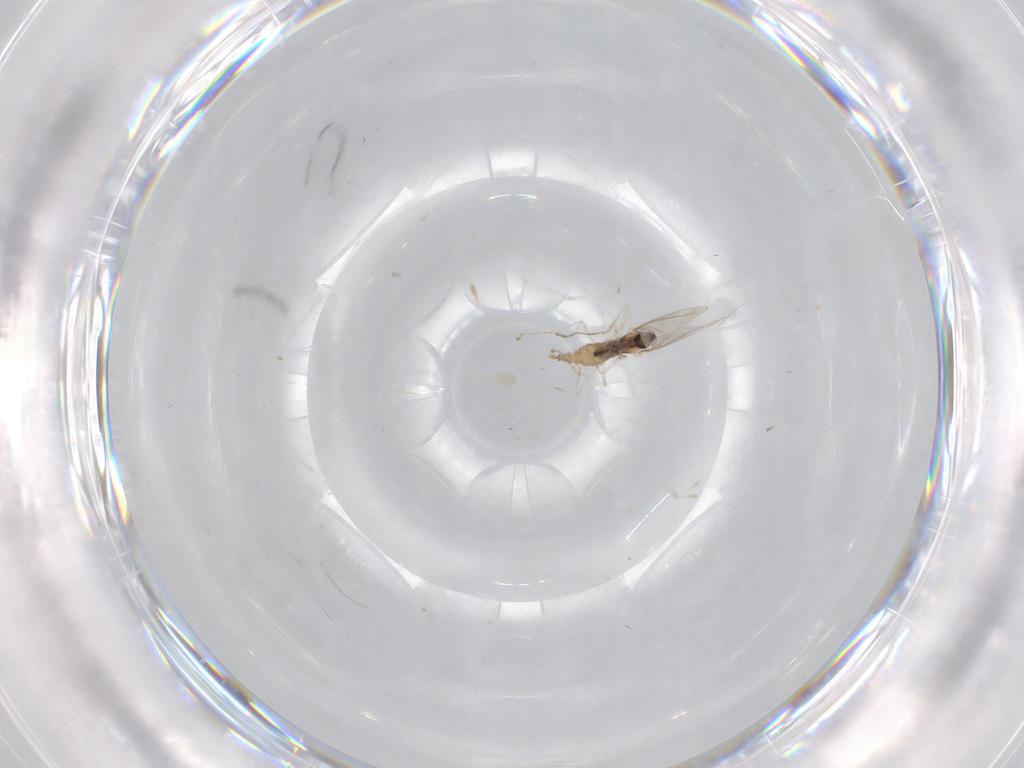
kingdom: Animalia
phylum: Arthropoda
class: Insecta
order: Diptera
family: Cecidomyiidae
